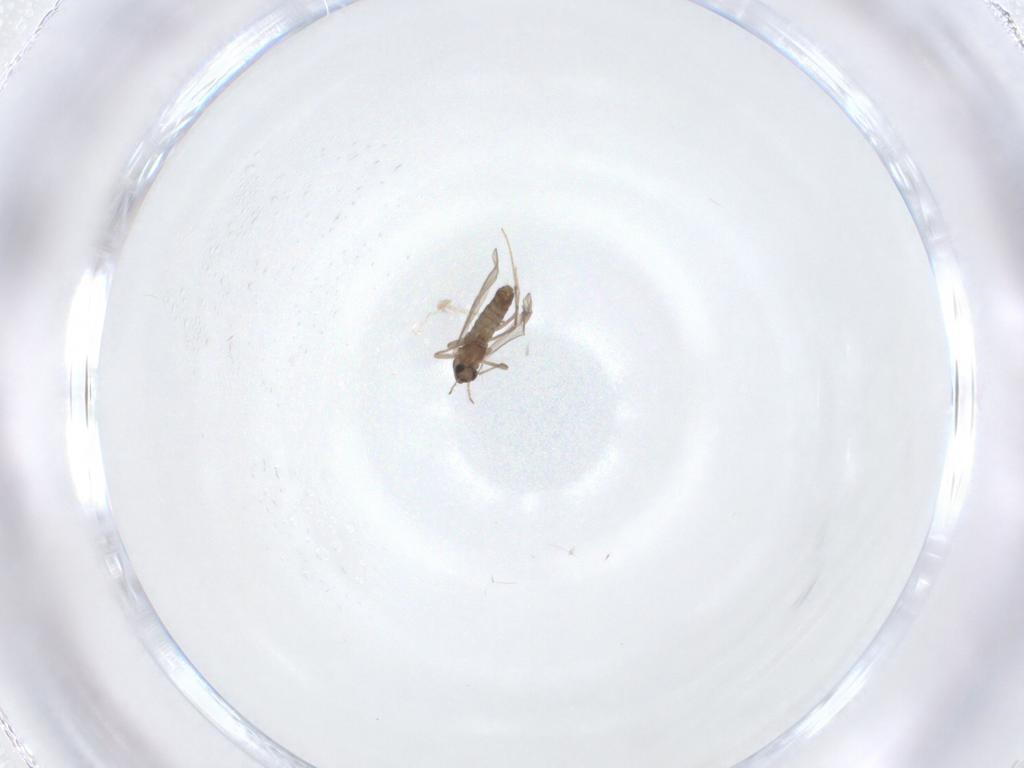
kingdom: Animalia
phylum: Arthropoda
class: Insecta
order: Diptera
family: Chironomidae
